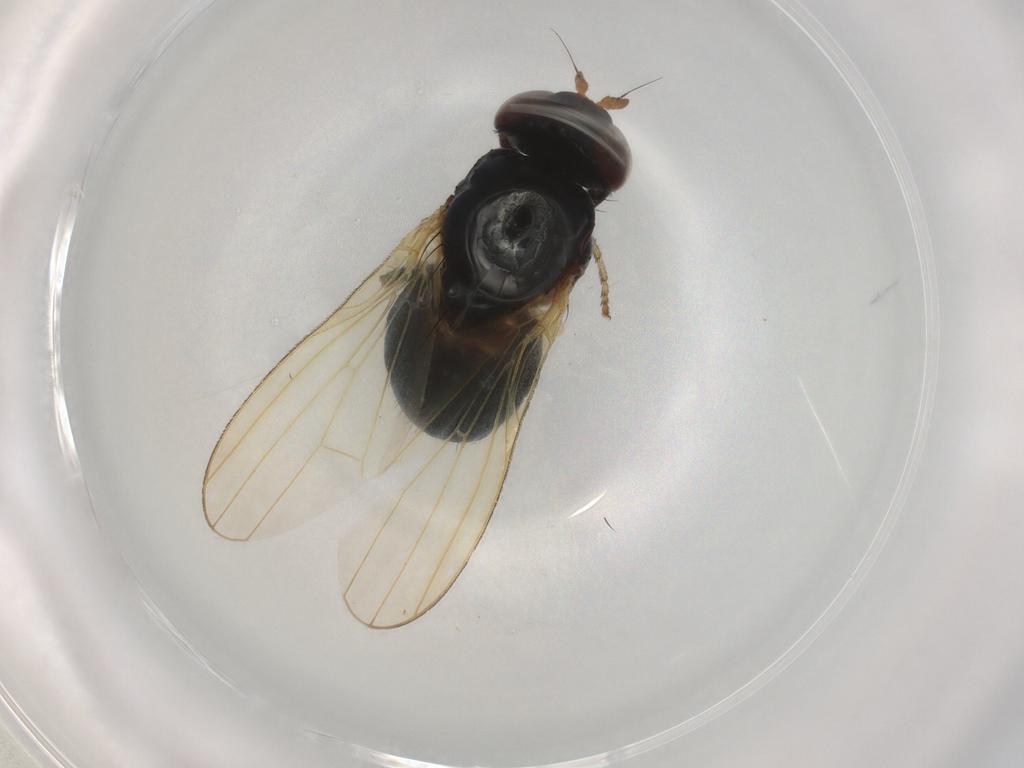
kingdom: Animalia
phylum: Arthropoda
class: Insecta
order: Diptera
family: Lauxaniidae
